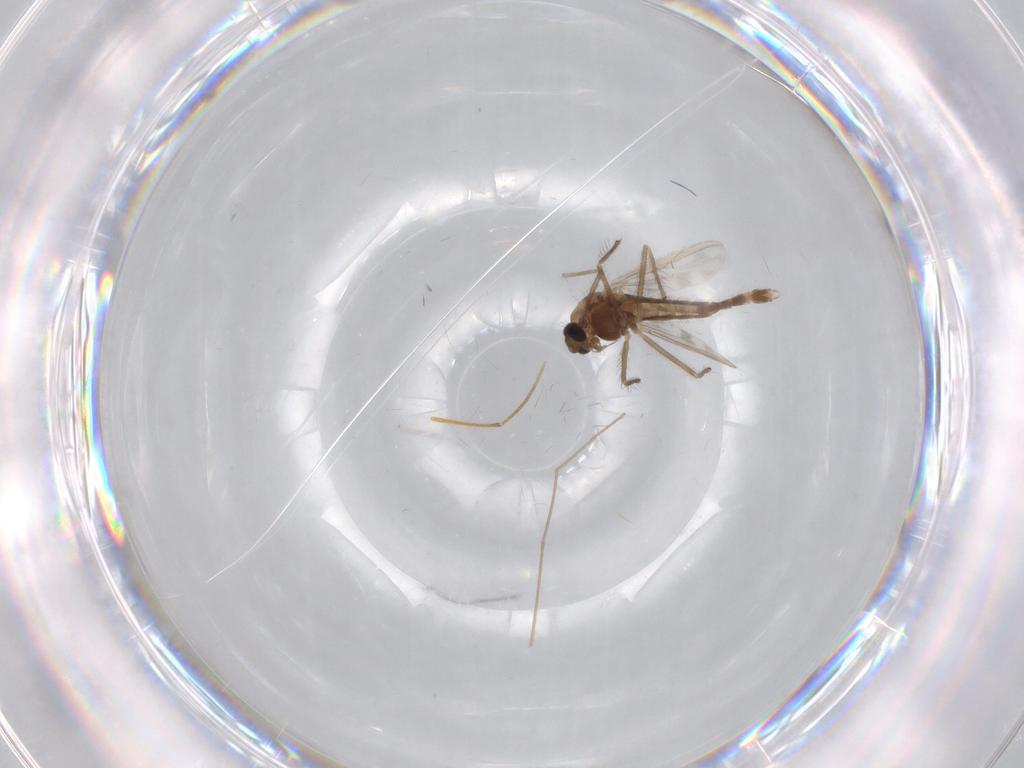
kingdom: Animalia
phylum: Arthropoda
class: Insecta
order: Diptera
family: Chironomidae
